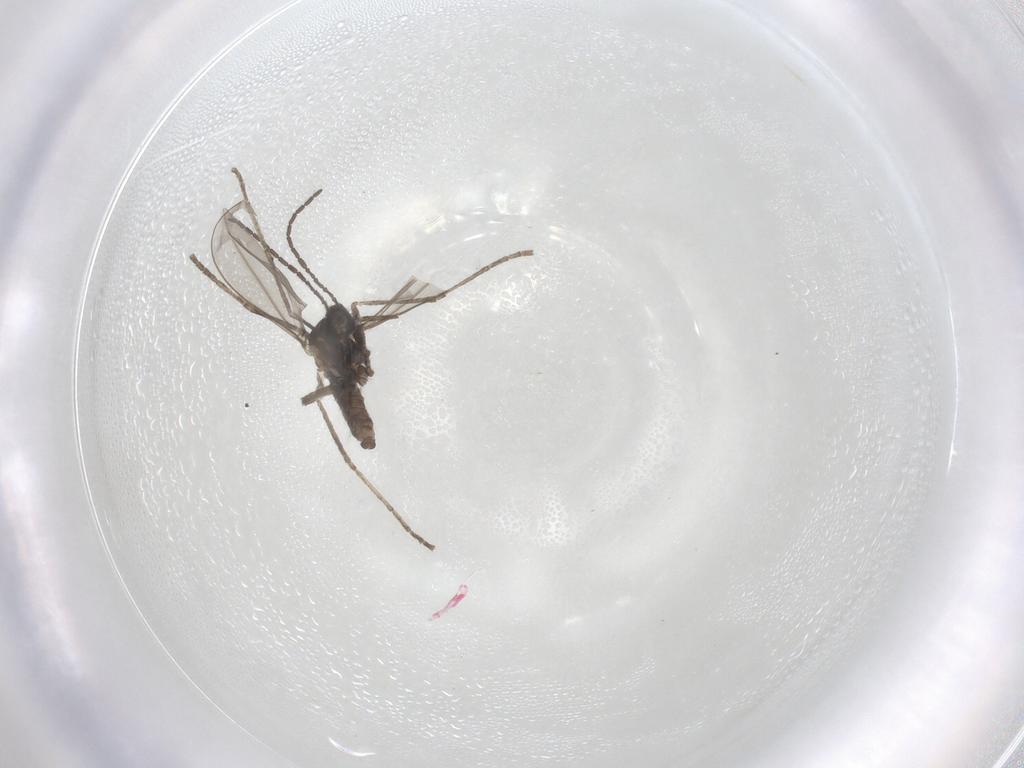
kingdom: Animalia
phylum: Arthropoda
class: Insecta
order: Diptera
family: Cecidomyiidae
